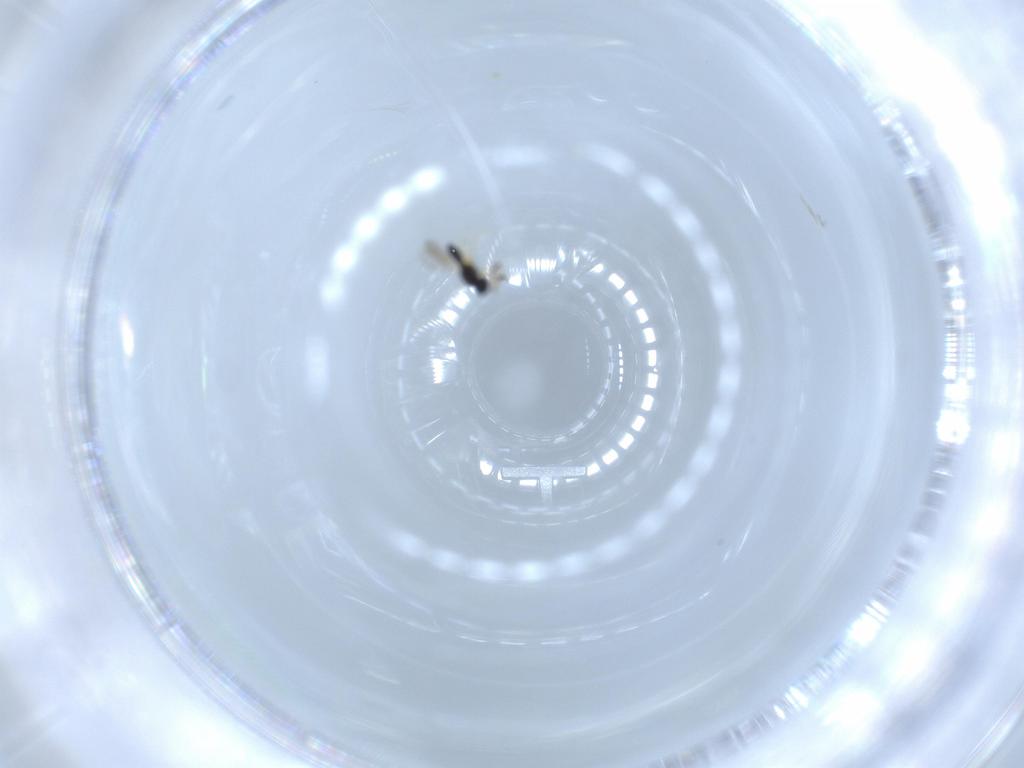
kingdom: Animalia
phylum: Arthropoda
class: Insecta
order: Hymenoptera
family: Scelionidae
